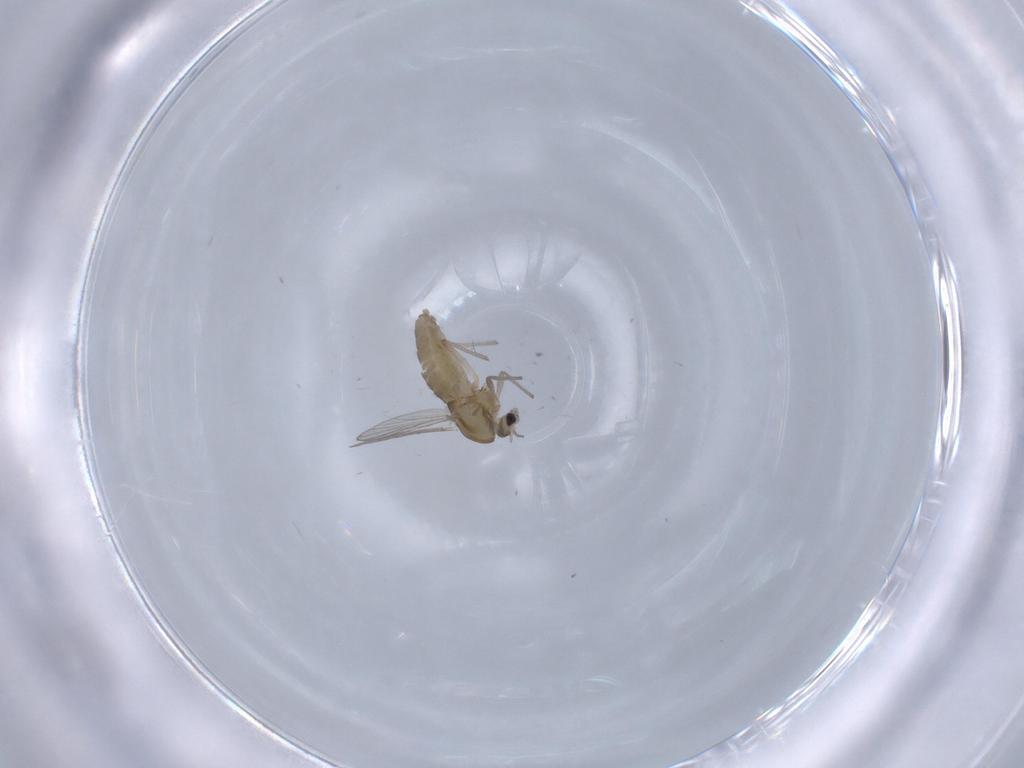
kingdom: Animalia
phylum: Arthropoda
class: Insecta
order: Diptera
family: Chironomidae
